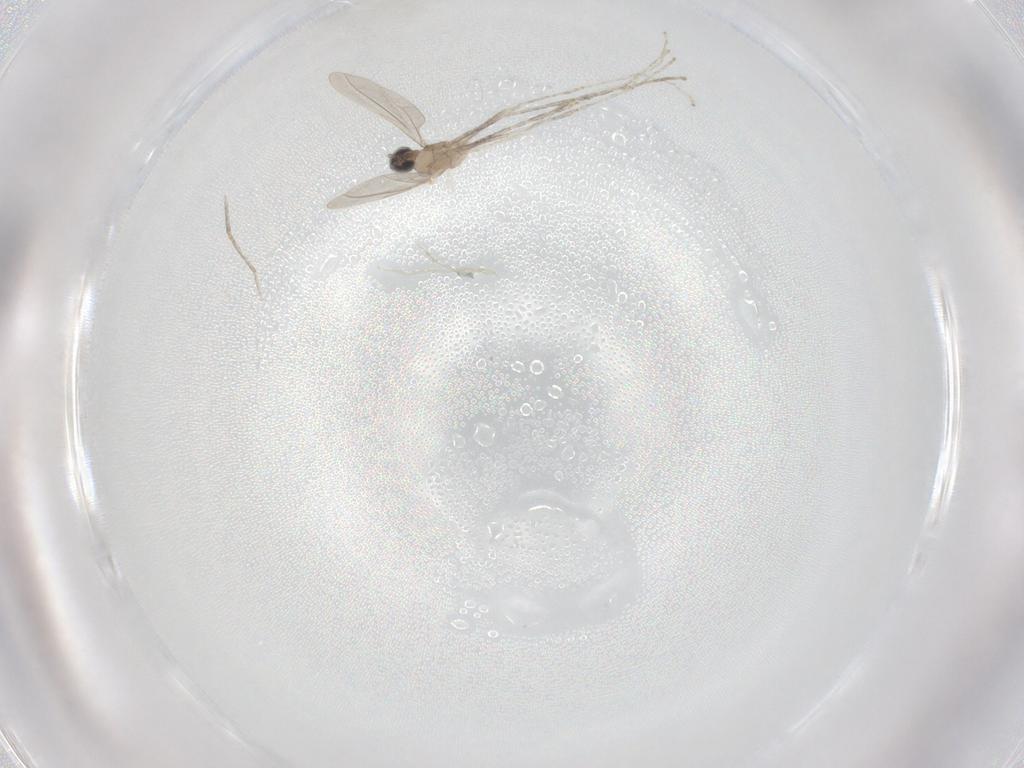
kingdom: Animalia
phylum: Arthropoda
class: Insecta
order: Diptera
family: Cecidomyiidae
